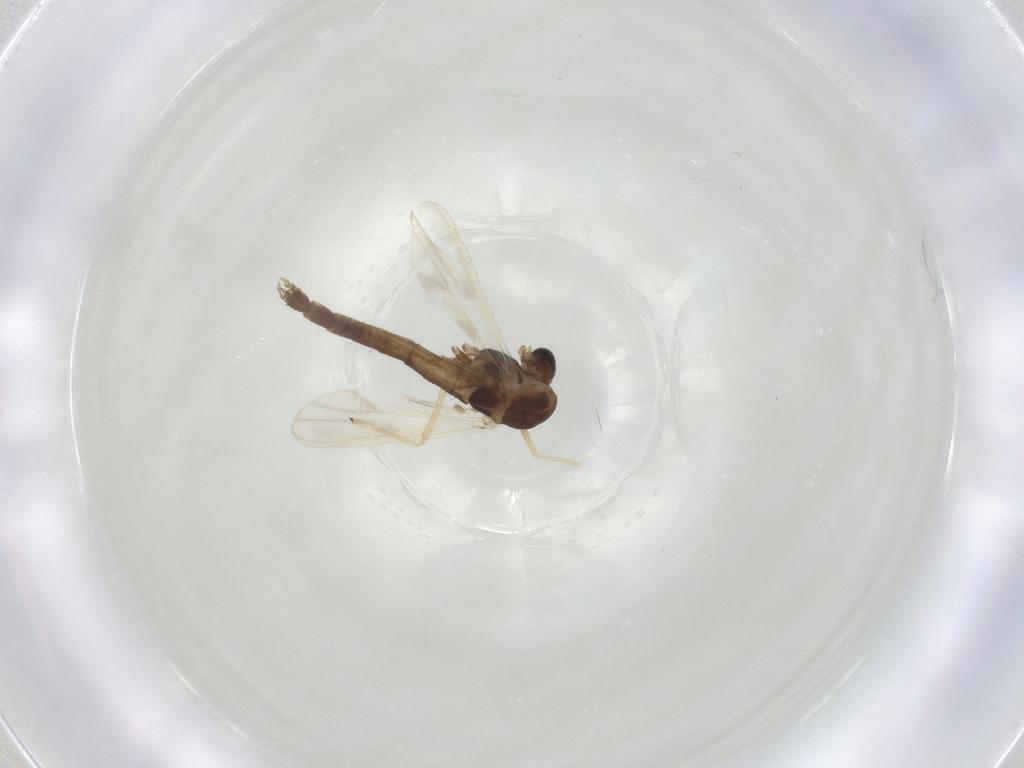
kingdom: Animalia
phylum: Arthropoda
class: Insecta
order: Diptera
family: Chironomidae
